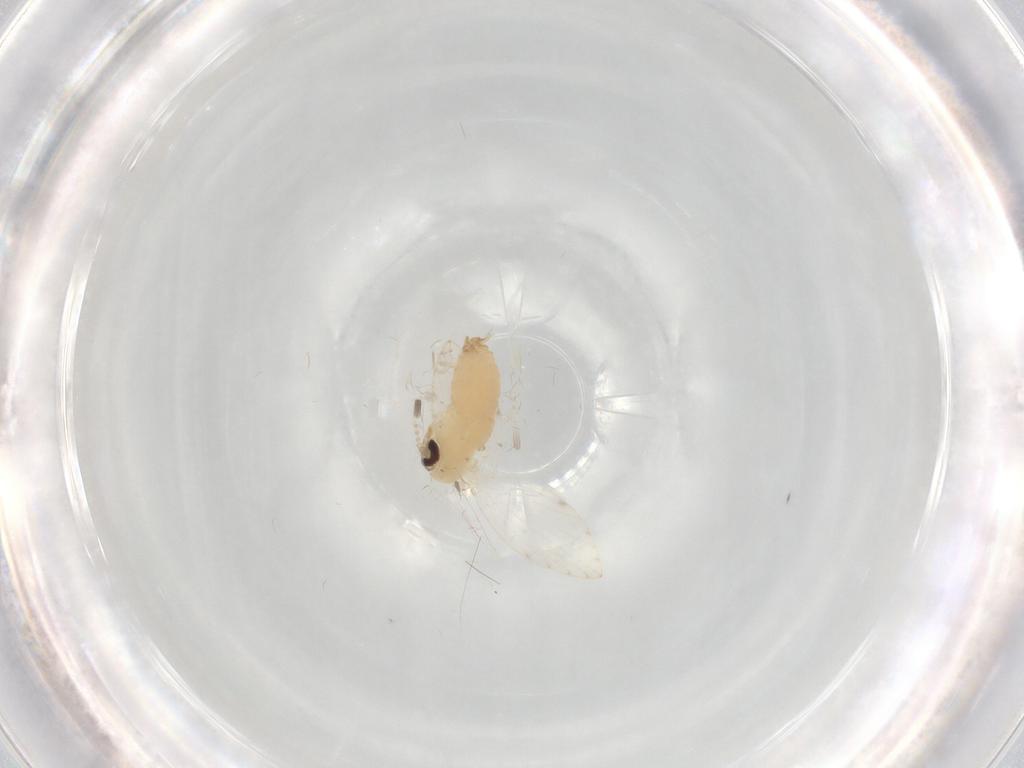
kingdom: Animalia
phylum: Arthropoda
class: Insecta
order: Diptera
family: Psychodidae
